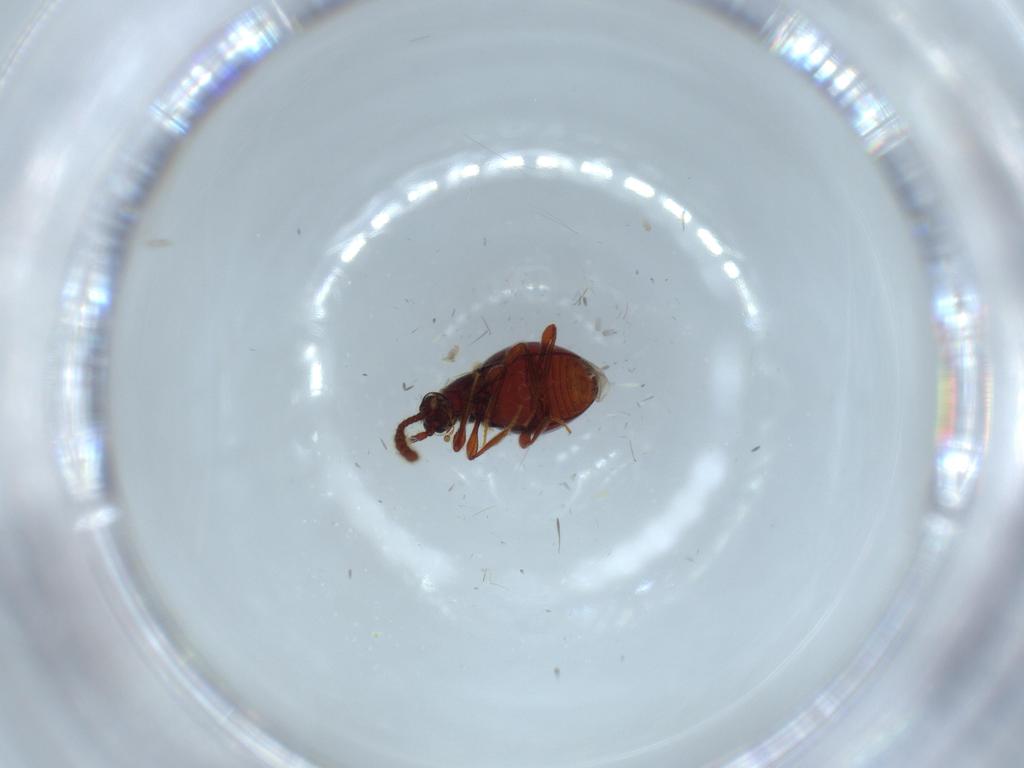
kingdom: Animalia
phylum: Arthropoda
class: Insecta
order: Coleoptera
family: Staphylinidae
